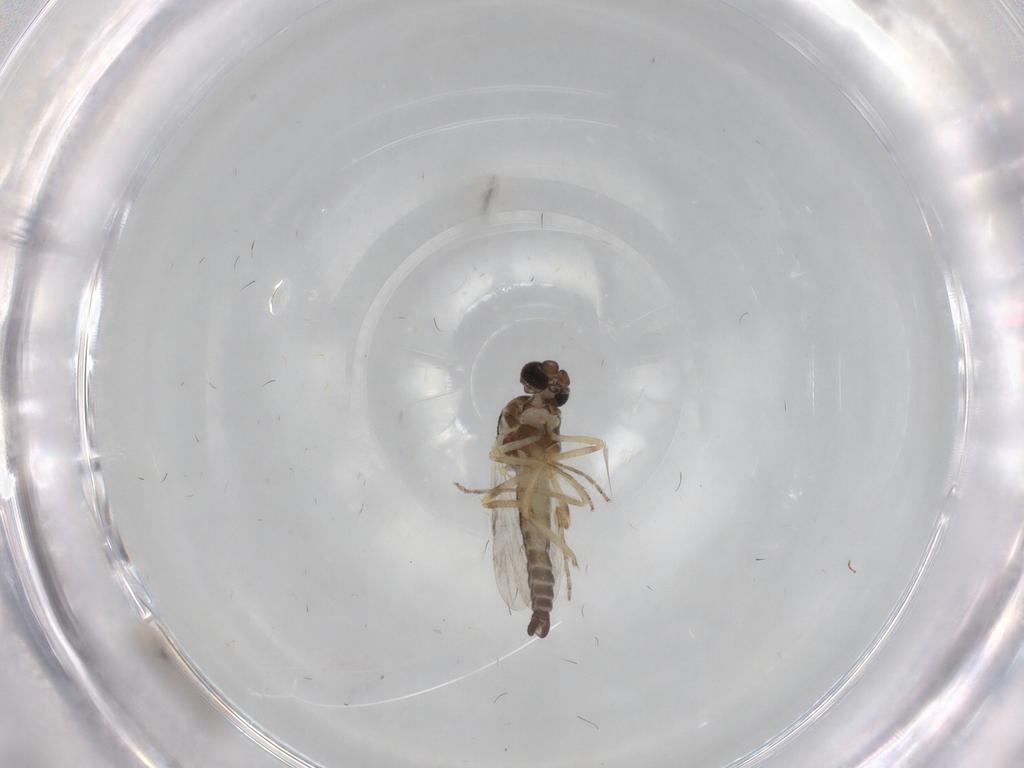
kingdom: Animalia
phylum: Arthropoda
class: Insecta
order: Diptera
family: Ceratopogonidae
